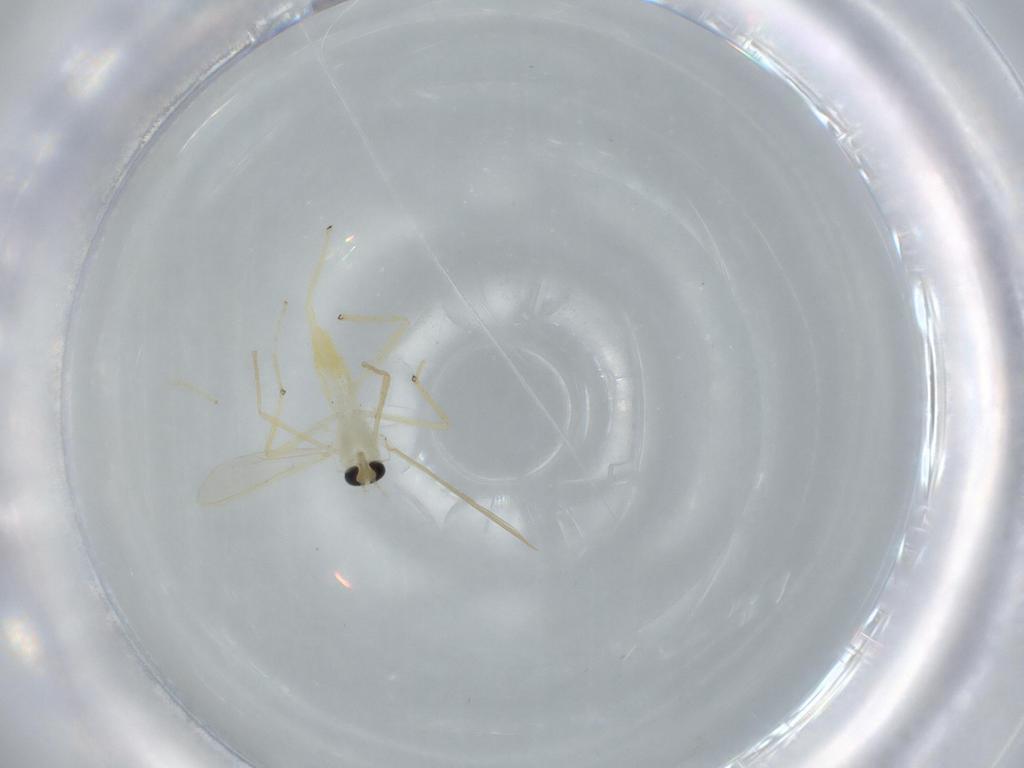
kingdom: Animalia
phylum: Arthropoda
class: Insecta
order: Diptera
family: Chironomidae
